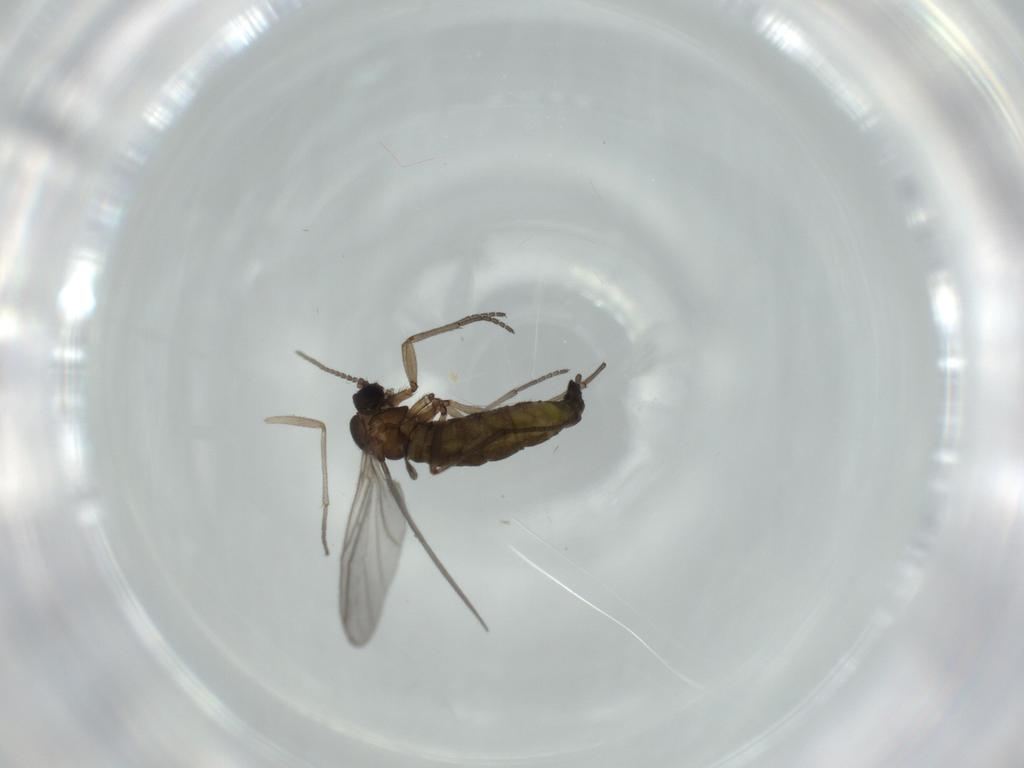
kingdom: Animalia
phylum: Arthropoda
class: Insecta
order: Diptera
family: Sciaridae
